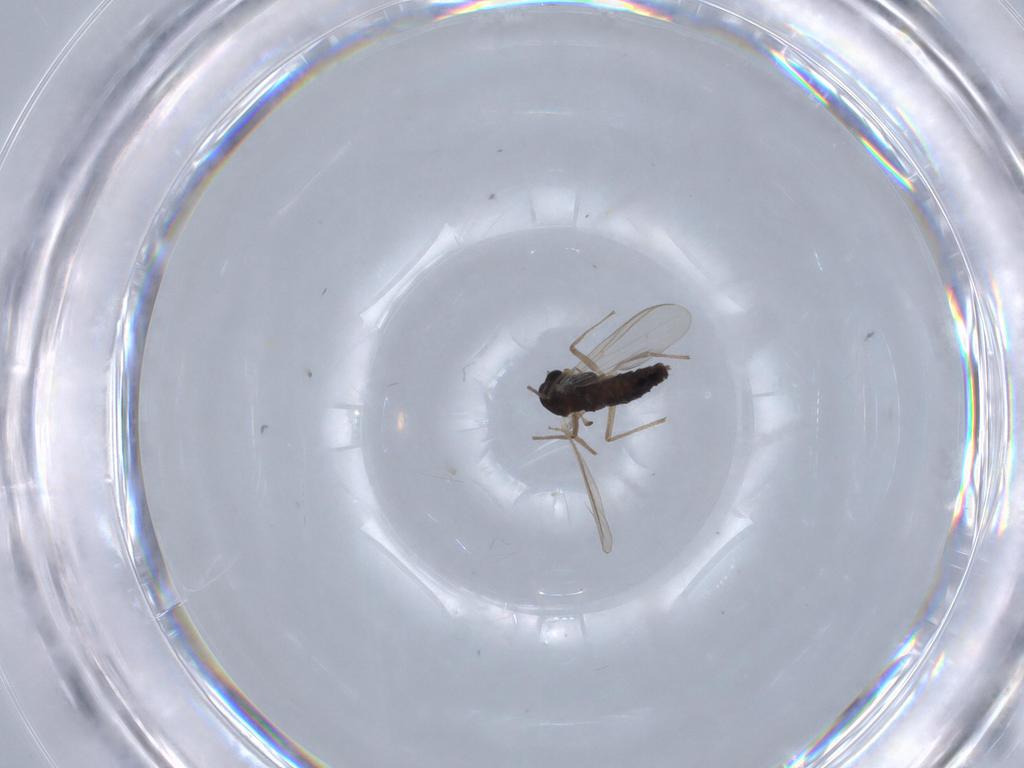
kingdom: Animalia
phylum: Arthropoda
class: Insecta
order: Diptera
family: Chironomidae
